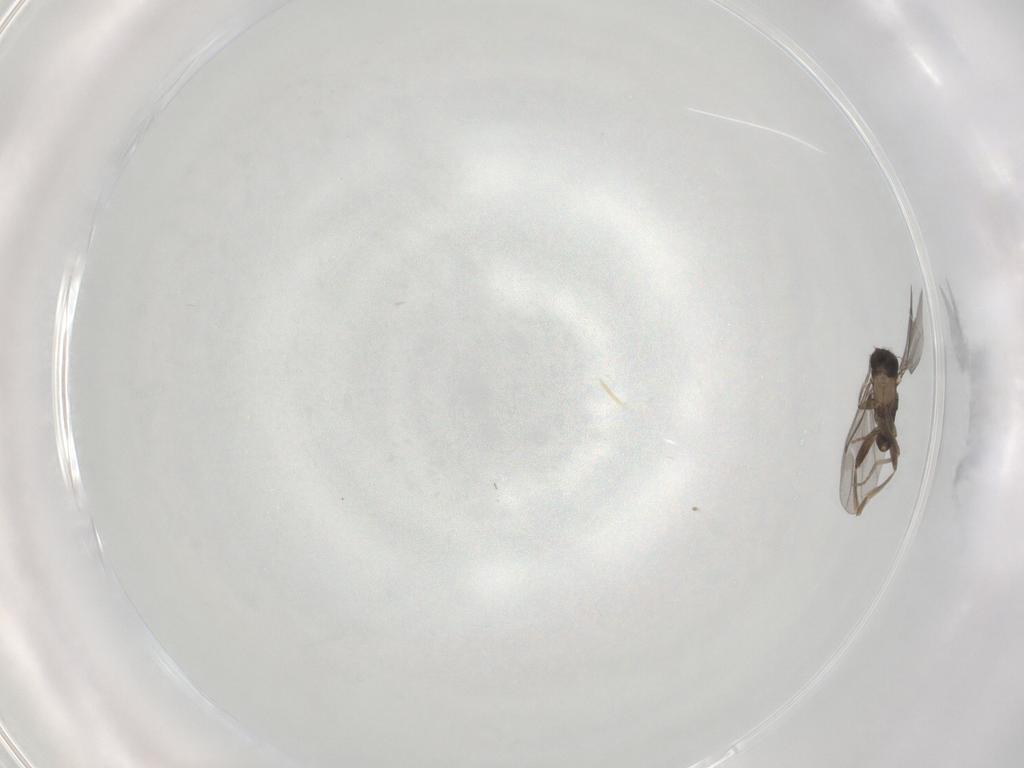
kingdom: Animalia
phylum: Arthropoda
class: Insecta
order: Diptera
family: Cecidomyiidae
